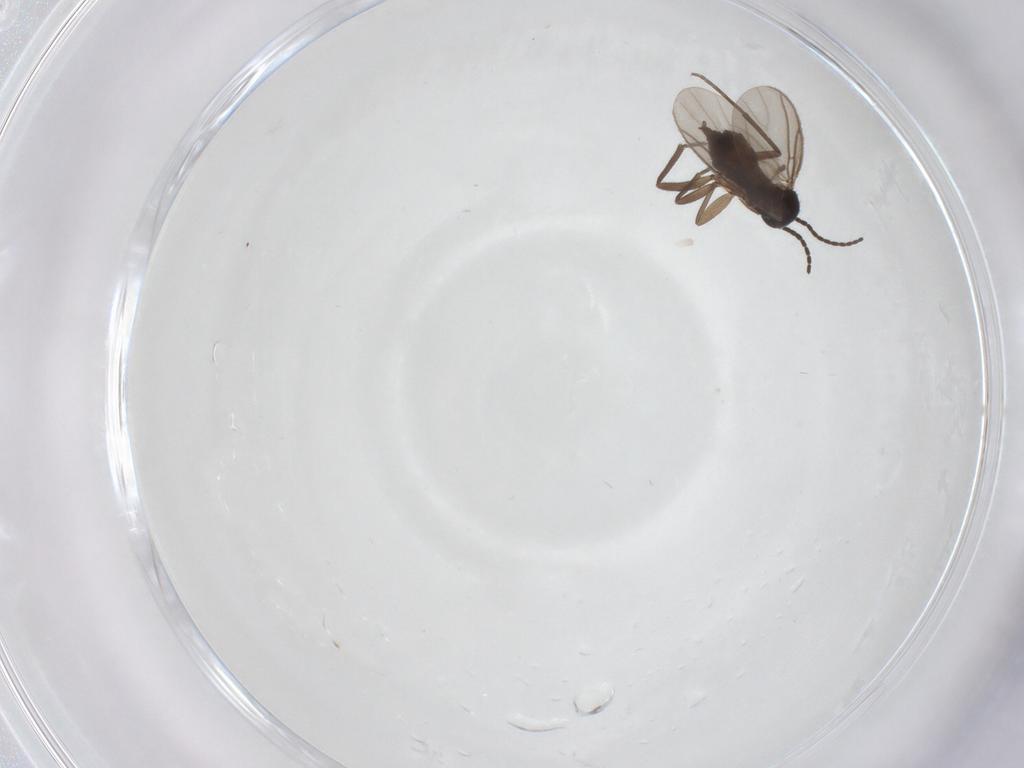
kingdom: Animalia
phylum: Arthropoda
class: Insecta
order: Diptera
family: Sciaridae
